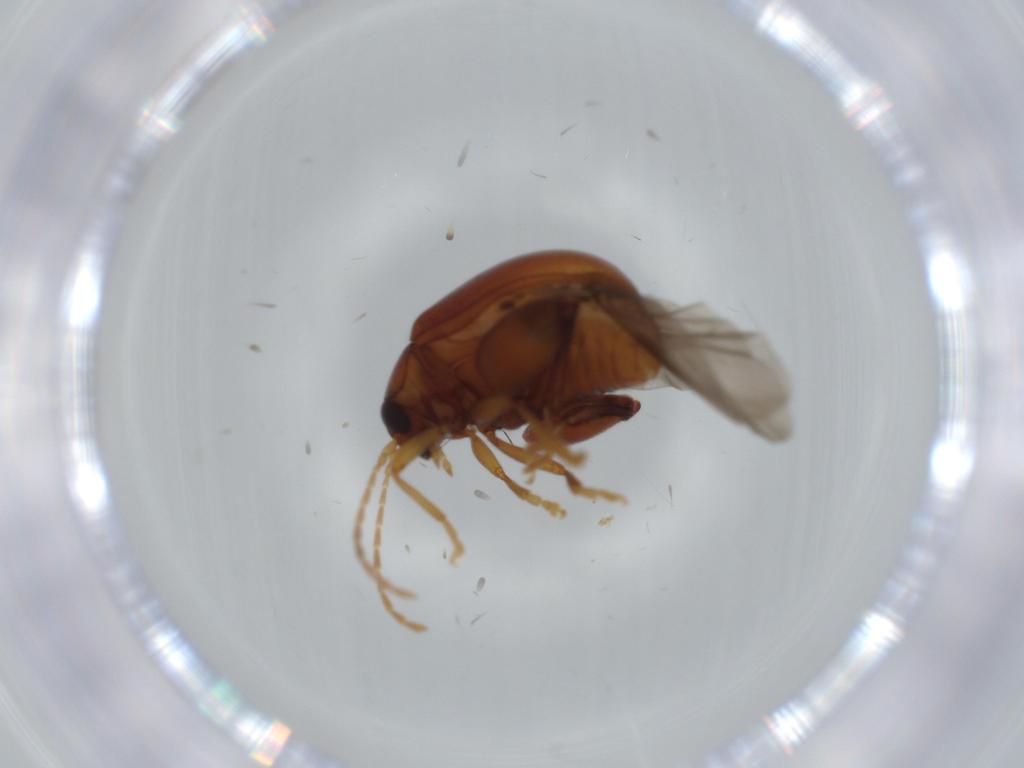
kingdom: Animalia
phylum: Arthropoda
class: Insecta
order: Coleoptera
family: Chrysomelidae
